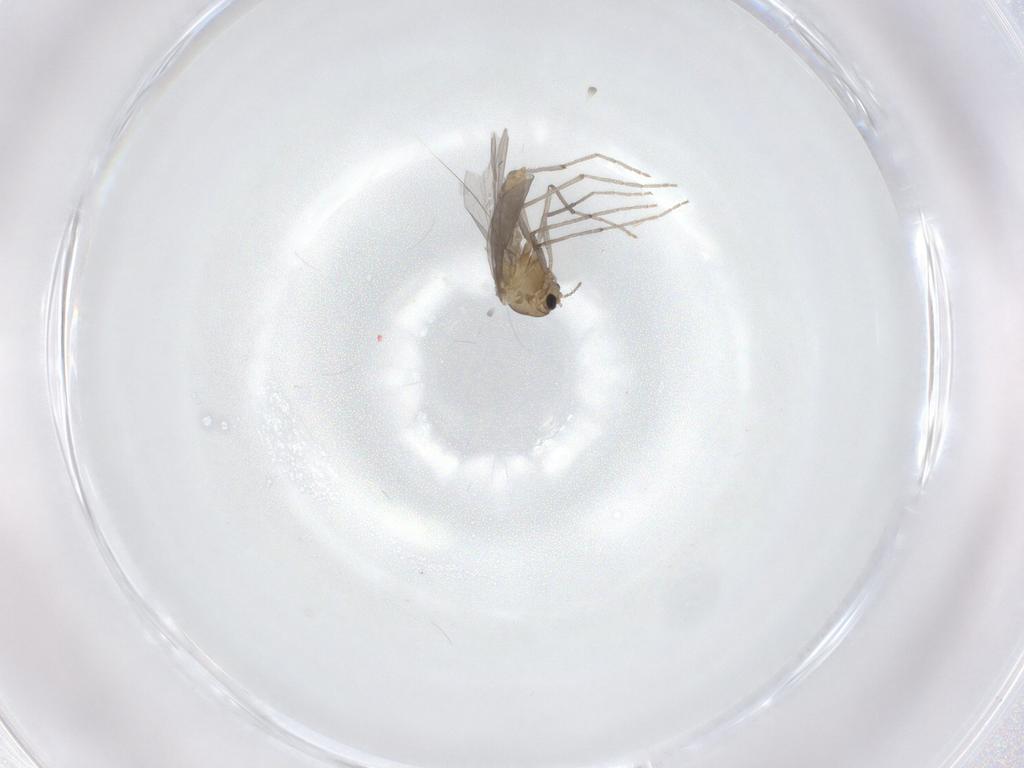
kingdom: Animalia
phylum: Arthropoda
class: Insecta
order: Diptera
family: Chironomidae
